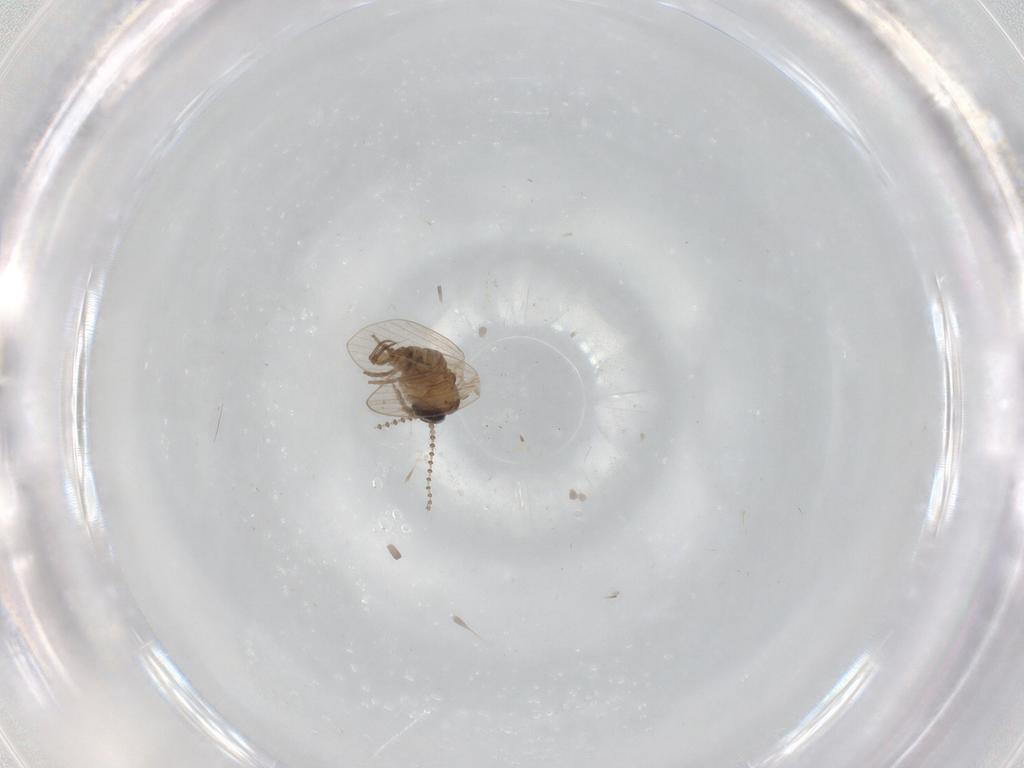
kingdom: Animalia
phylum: Arthropoda
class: Insecta
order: Diptera
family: Psychodidae
